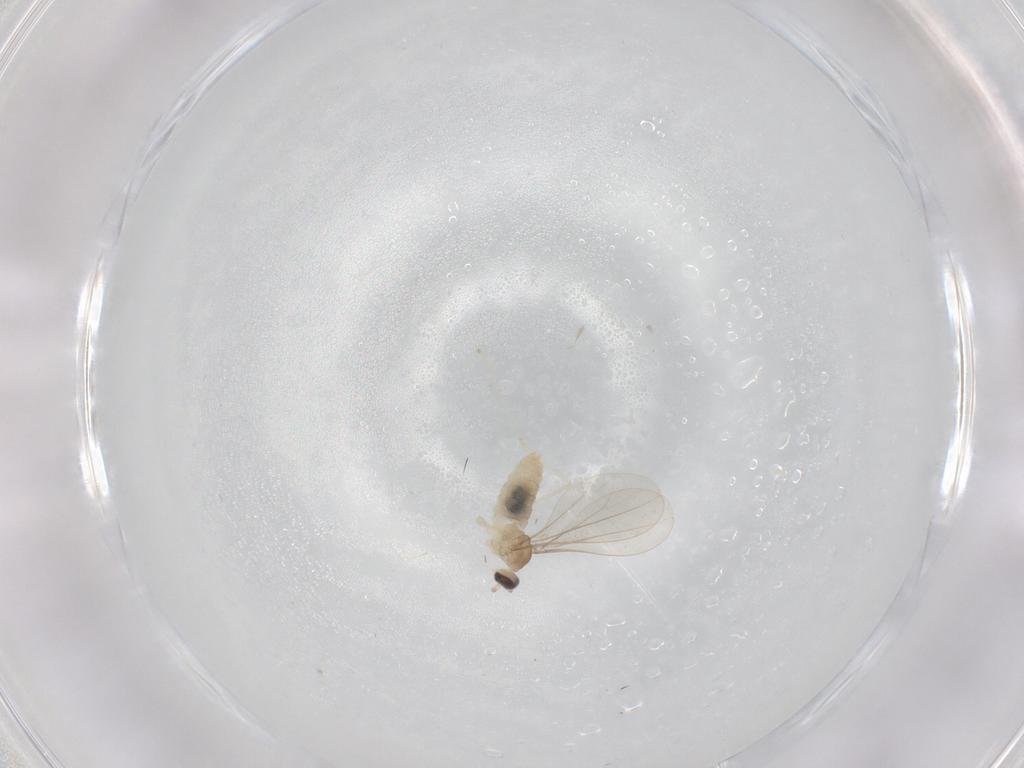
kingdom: Animalia
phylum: Arthropoda
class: Insecta
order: Diptera
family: Cecidomyiidae
